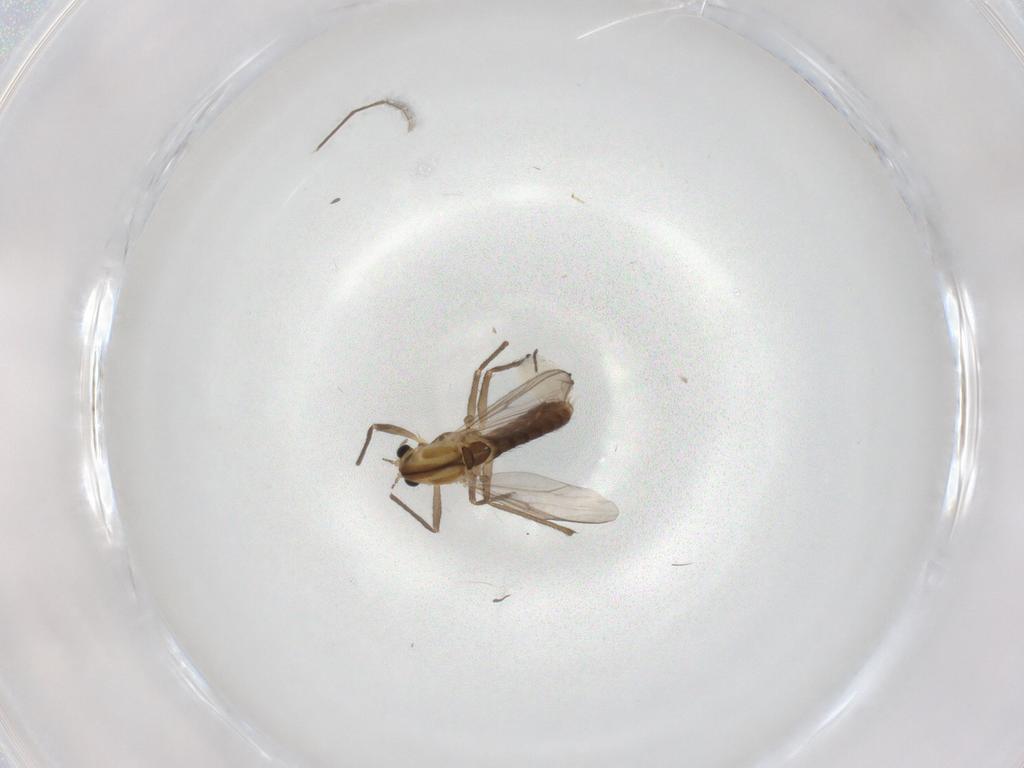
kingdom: Animalia
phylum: Arthropoda
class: Insecta
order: Diptera
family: Chironomidae
